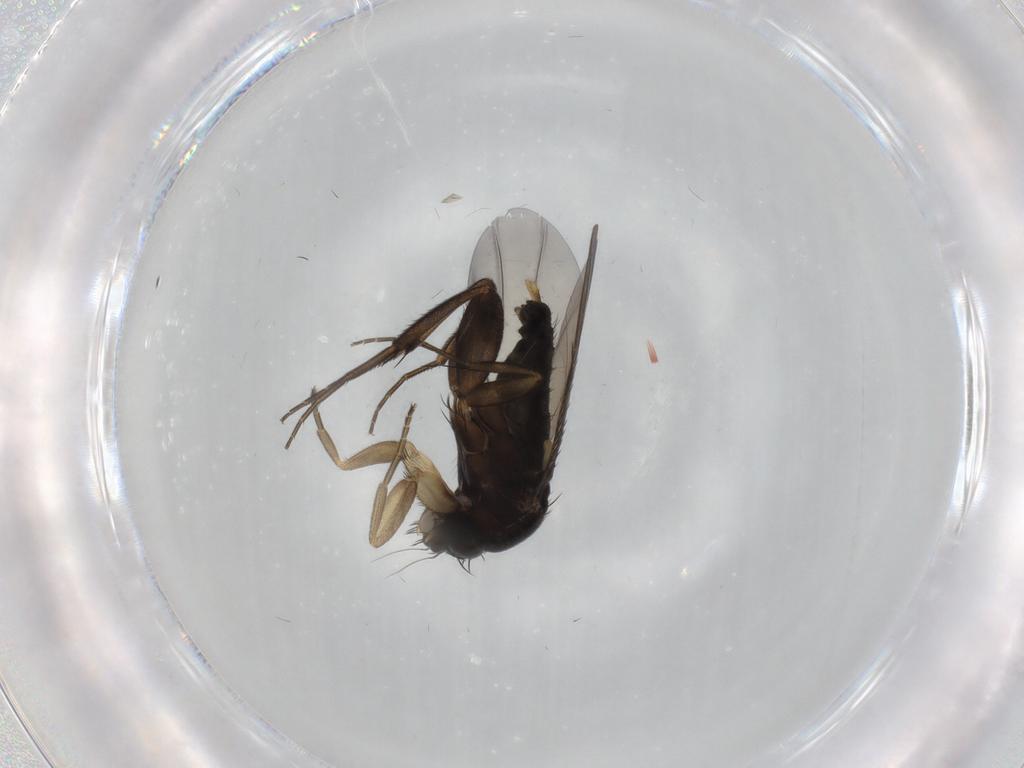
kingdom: Animalia
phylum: Arthropoda
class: Insecta
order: Diptera
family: Phoridae
